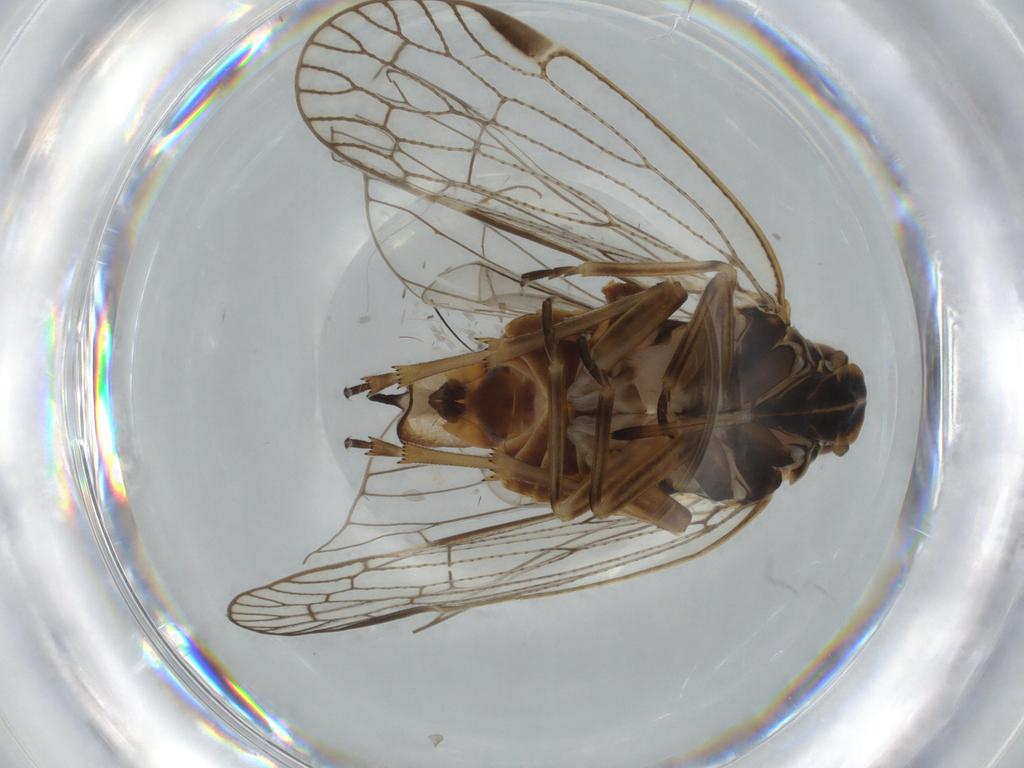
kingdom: Animalia
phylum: Arthropoda
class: Insecta
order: Hemiptera
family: Cixiidae
